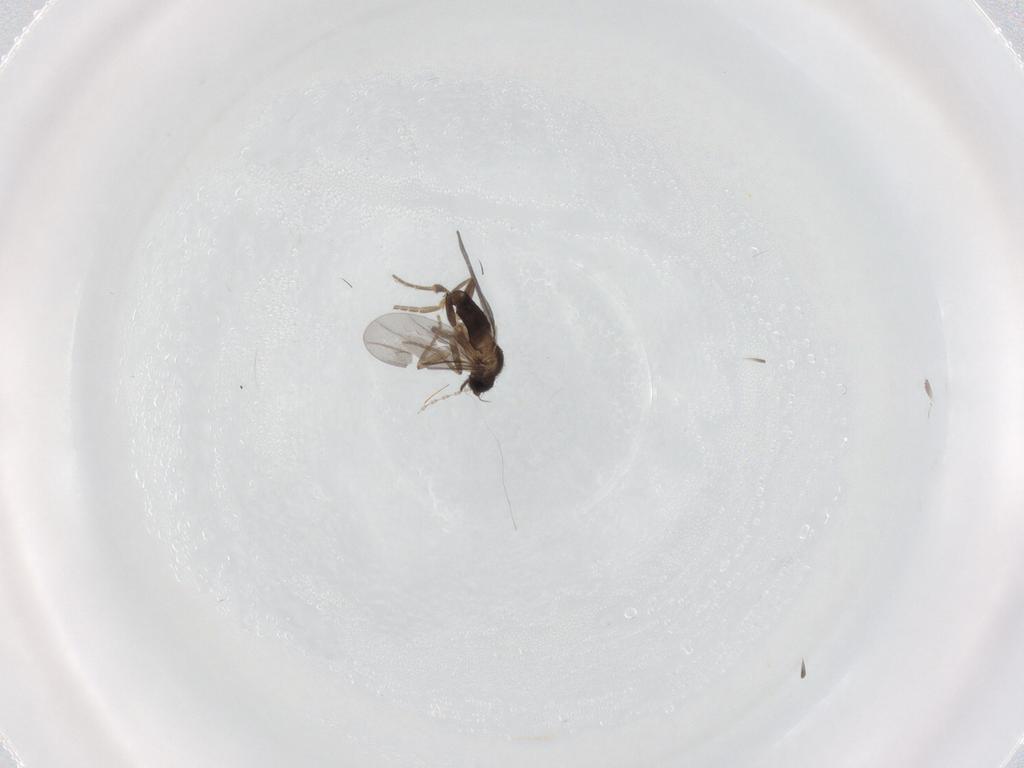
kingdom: Animalia
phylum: Arthropoda
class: Insecta
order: Diptera
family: Cecidomyiidae
